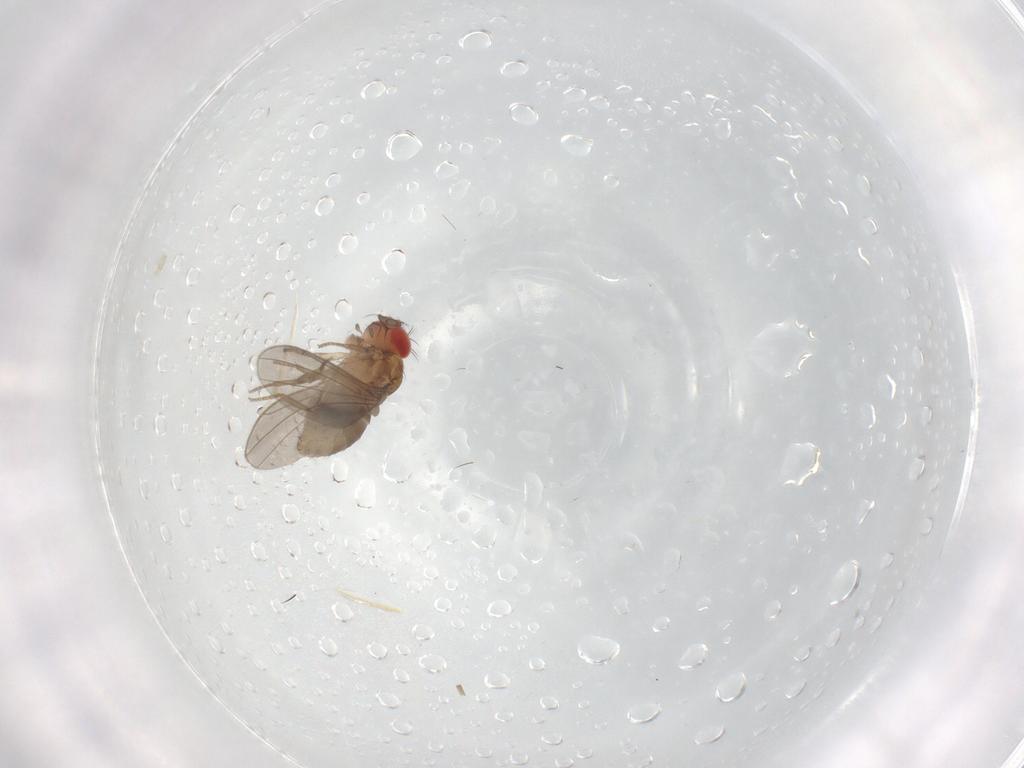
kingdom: Animalia
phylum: Arthropoda
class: Insecta
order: Diptera
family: Drosophilidae
